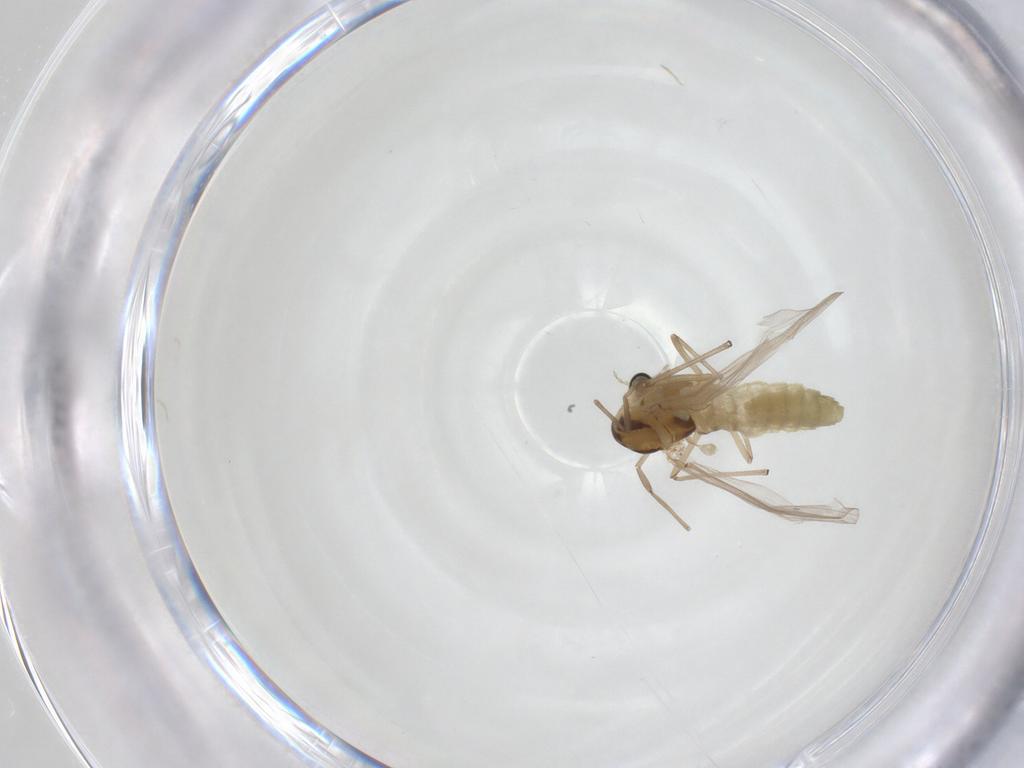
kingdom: Animalia
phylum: Arthropoda
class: Insecta
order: Diptera
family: Chironomidae
